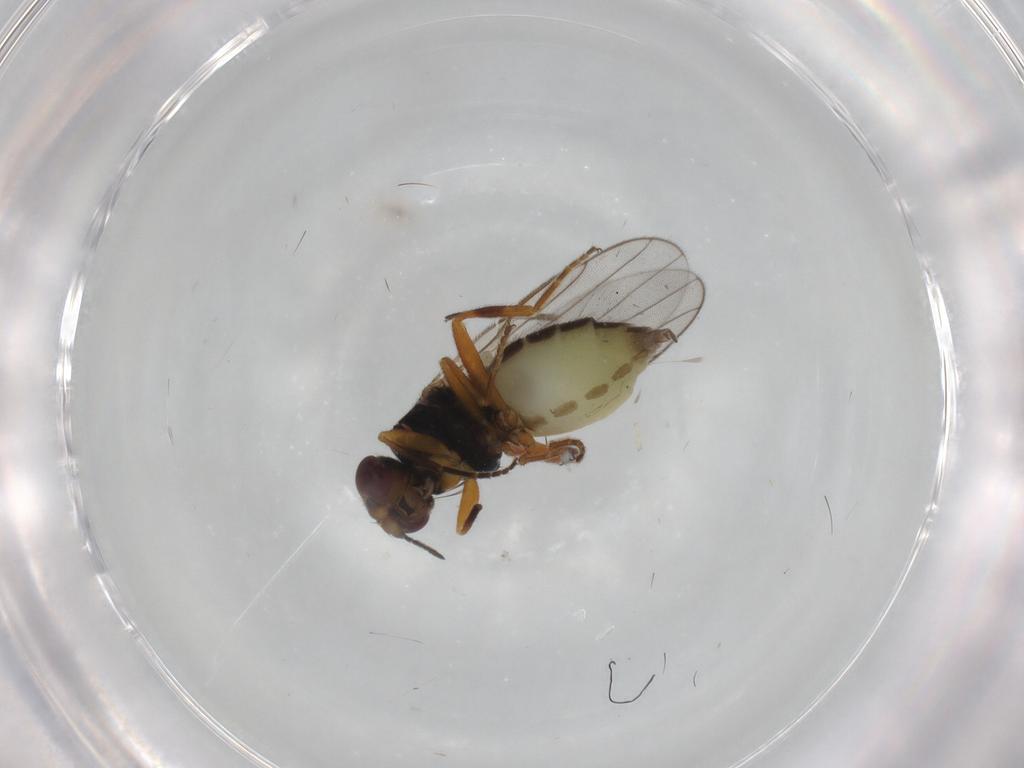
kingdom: Animalia
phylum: Arthropoda
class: Insecta
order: Diptera
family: Chloropidae
